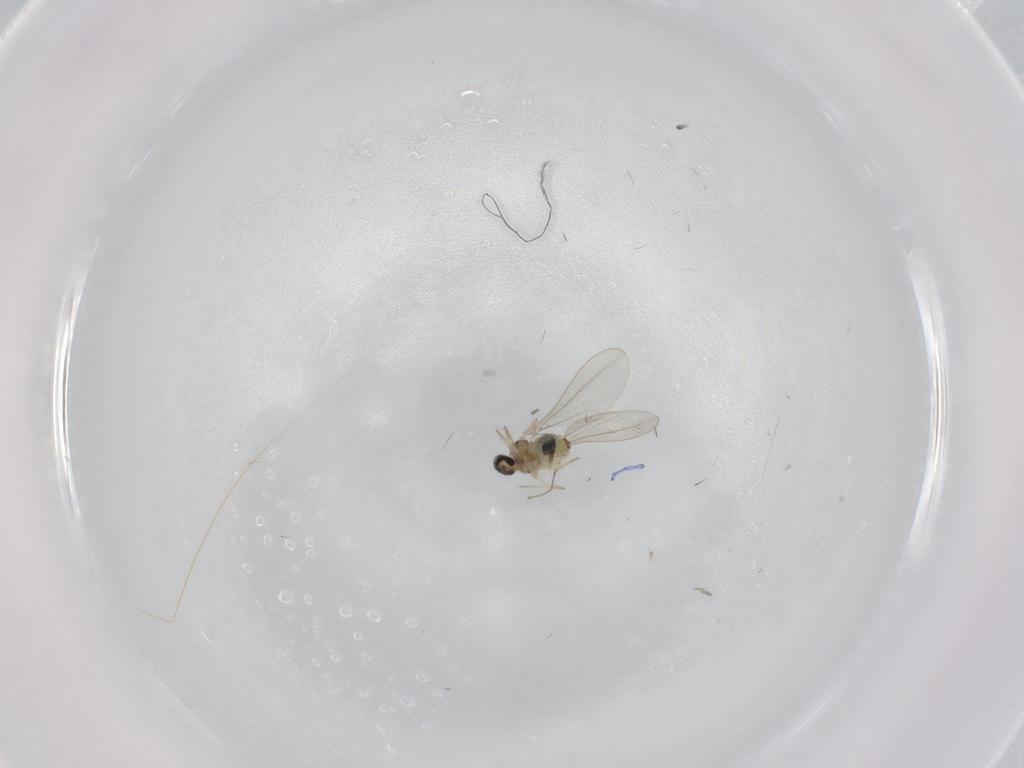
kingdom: Animalia
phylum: Arthropoda
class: Insecta
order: Diptera
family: Cecidomyiidae
